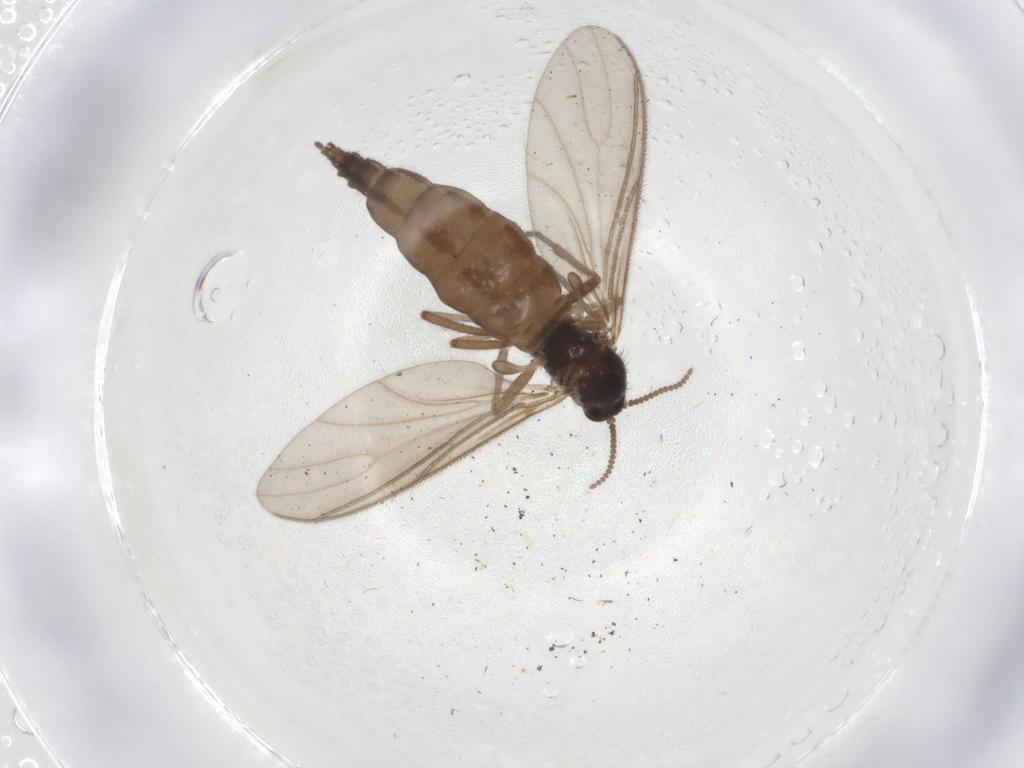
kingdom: Animalia
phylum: Arthropoda
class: Insecta
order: Diptera
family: Sciaridae
